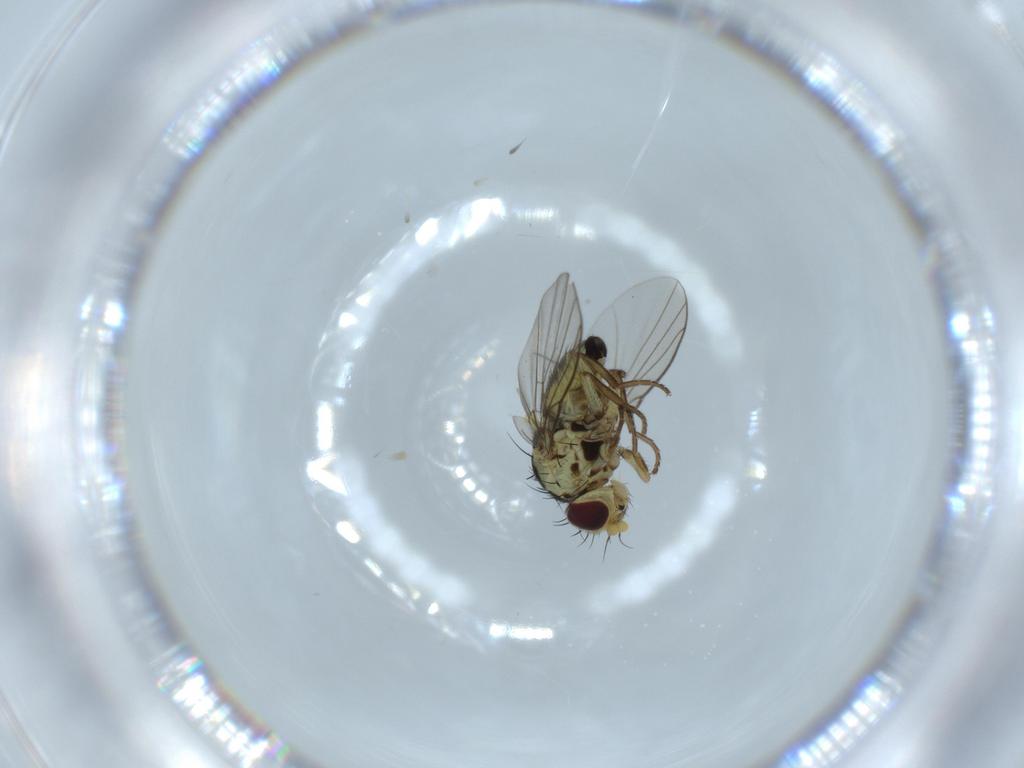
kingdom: Animalia
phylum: Arthropoda
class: Insecta
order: Diptera
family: Agromyzidae
